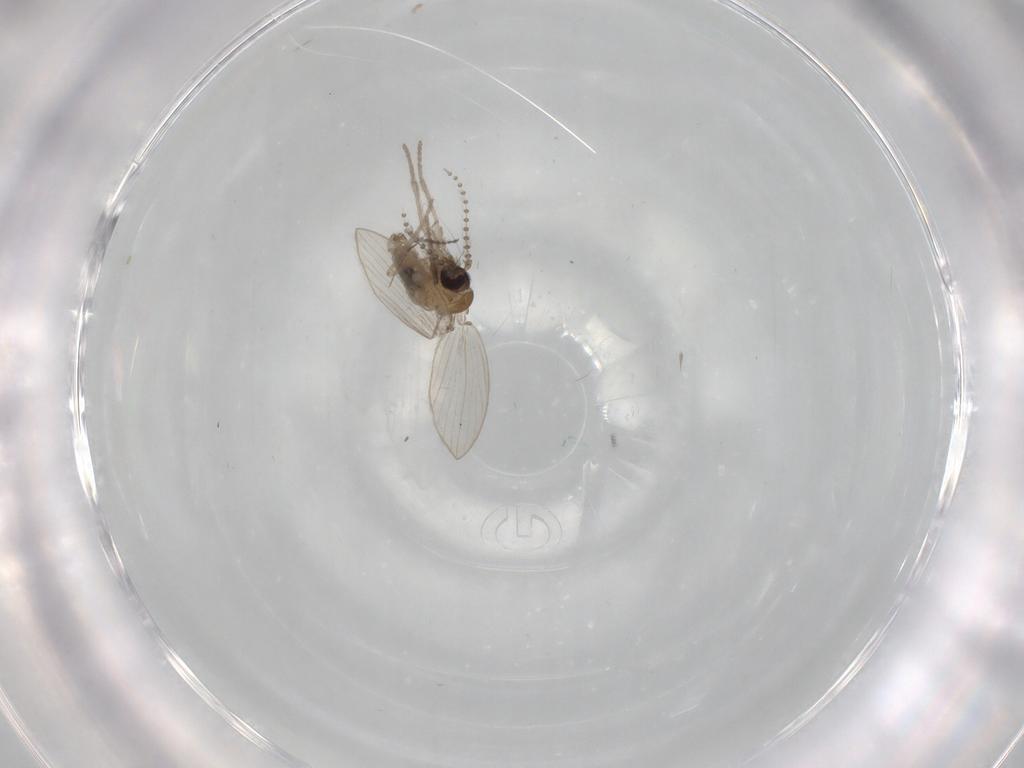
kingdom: Animalia
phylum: Arthropoda
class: Insecta
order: Diptera
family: Psychodidae
